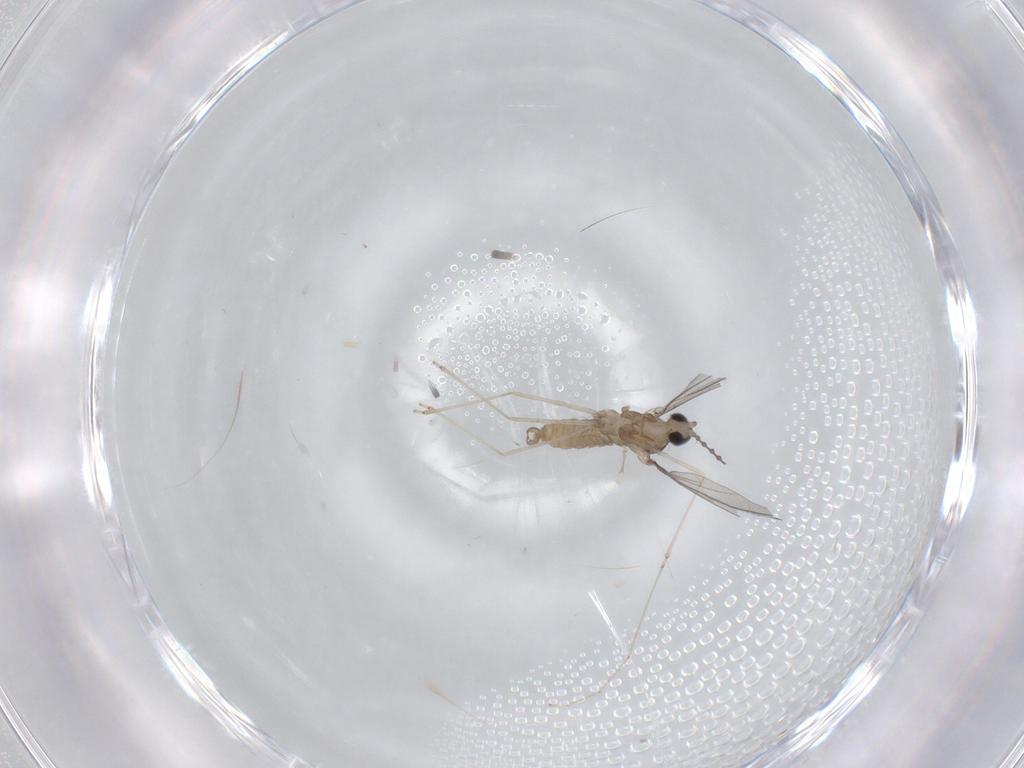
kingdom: Animalia
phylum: Arthropoda
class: Insecta
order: Diptera
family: Cecidomyiidae
